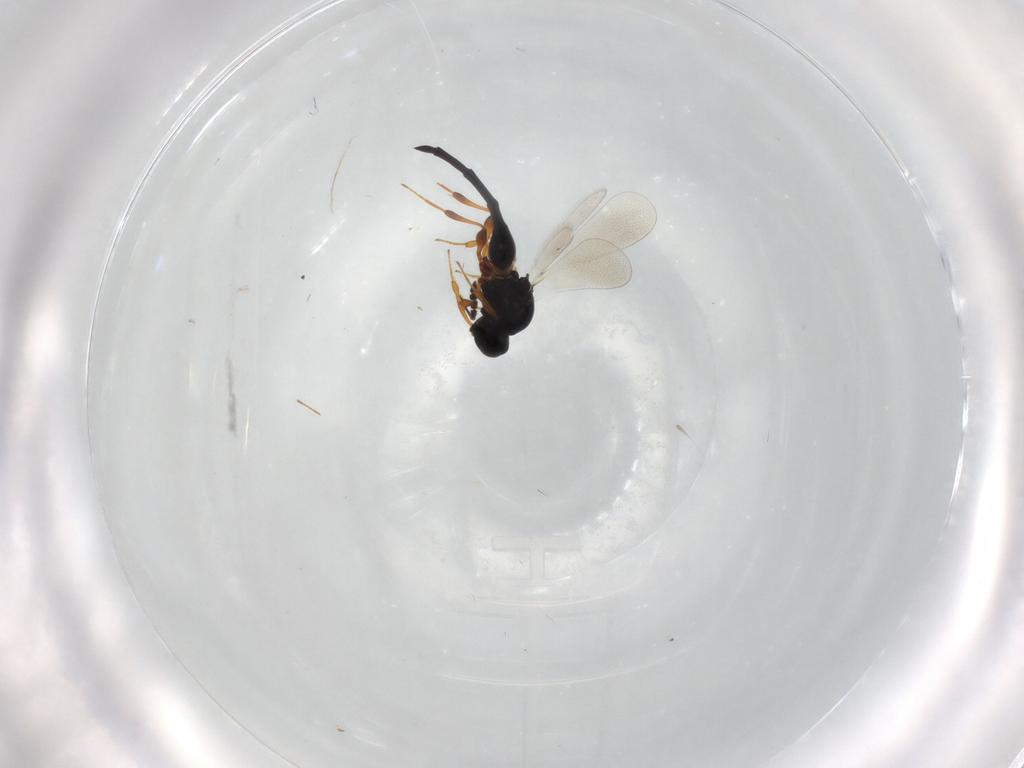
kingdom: Animalia
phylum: Arthropoda
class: Insecta
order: Hymenoptera
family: Platygastridae
